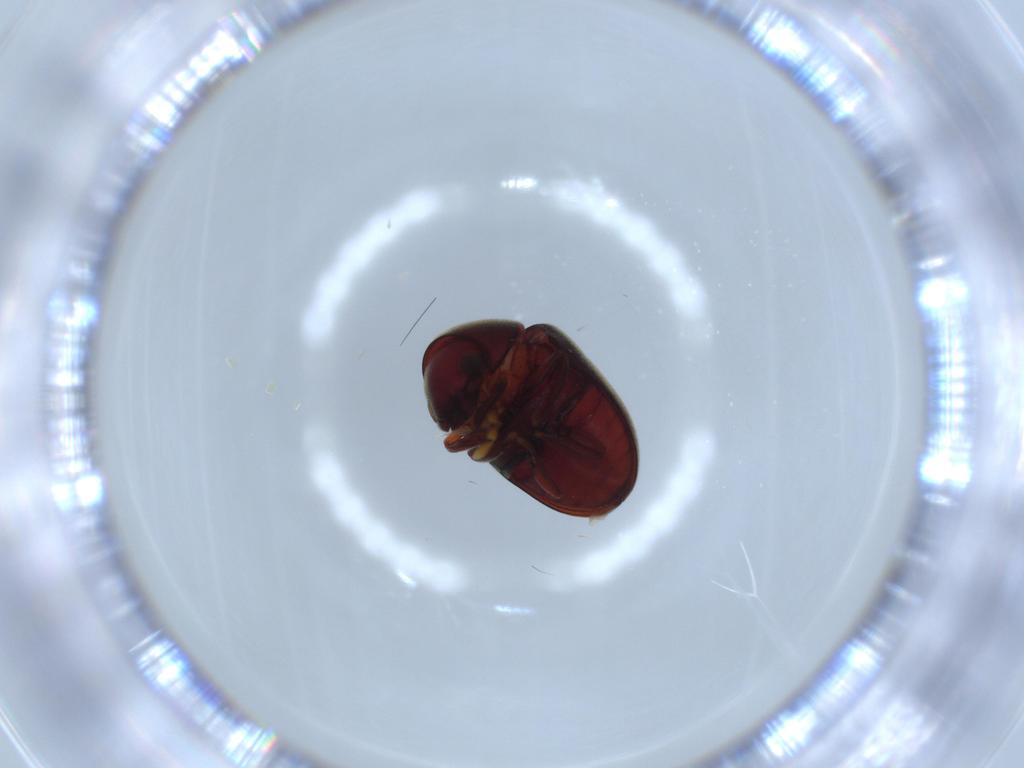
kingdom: Animalia
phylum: Arthropoda
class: Insecta
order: Coleoptera
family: Ptinidae
